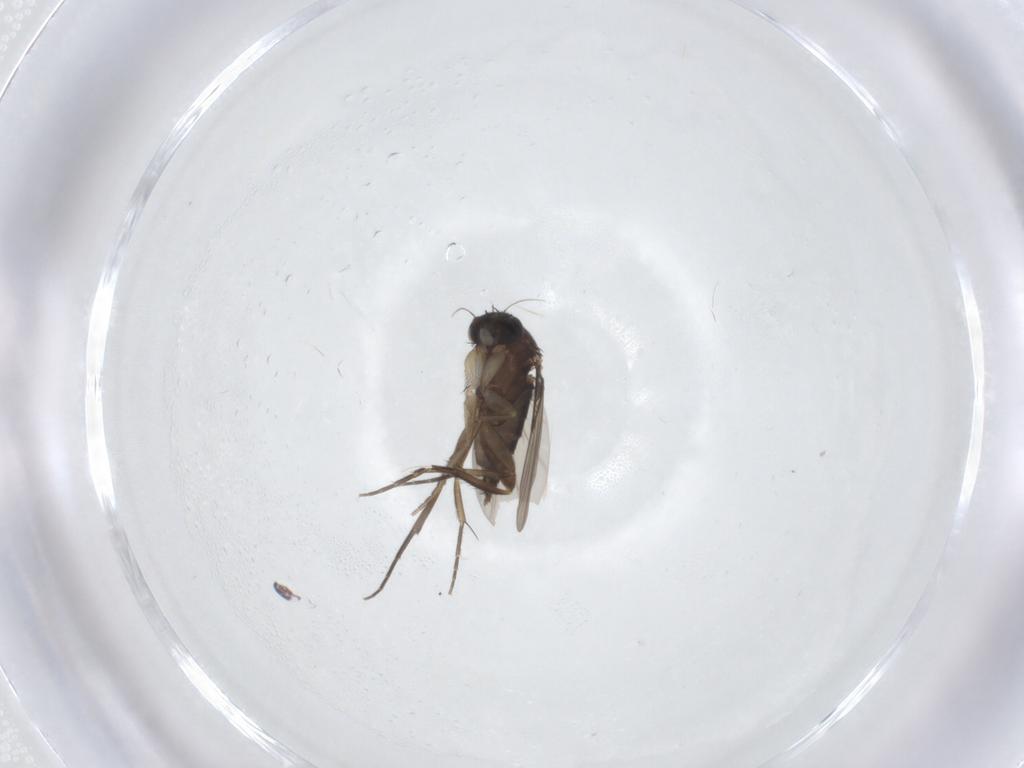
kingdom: Animalia
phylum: Arthropoda
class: Insecta
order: Diptera
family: Phoridae
